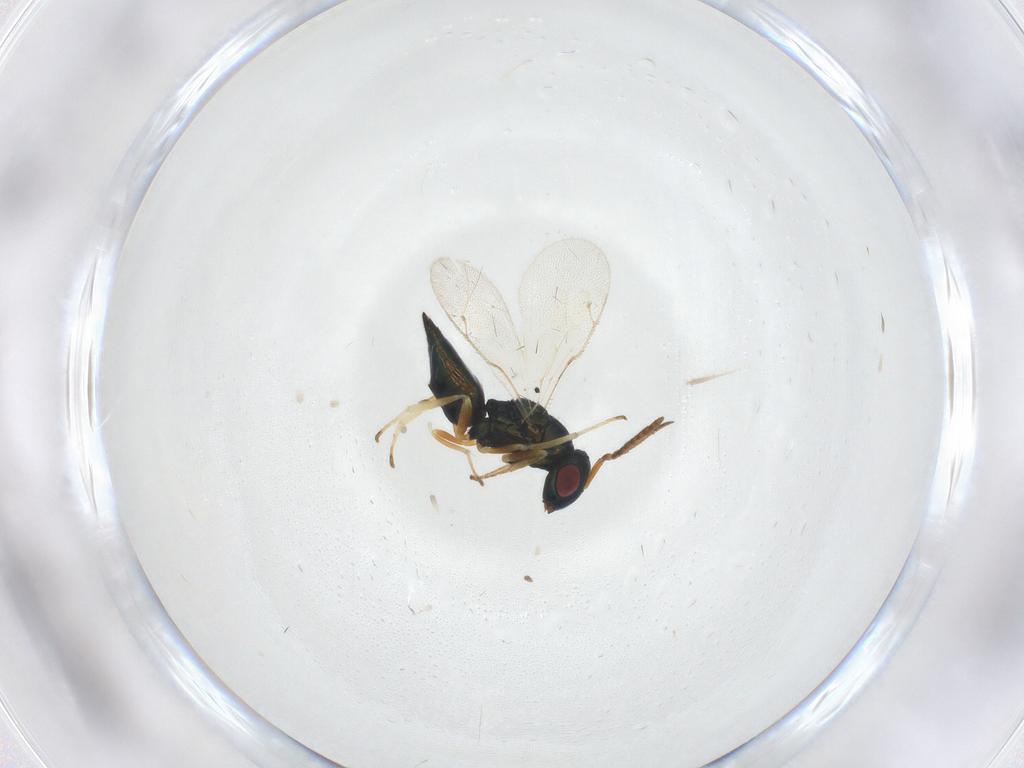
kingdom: Animalia
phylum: Arthropoda
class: Insecta
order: Hymenoptera
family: Pteromalidae
